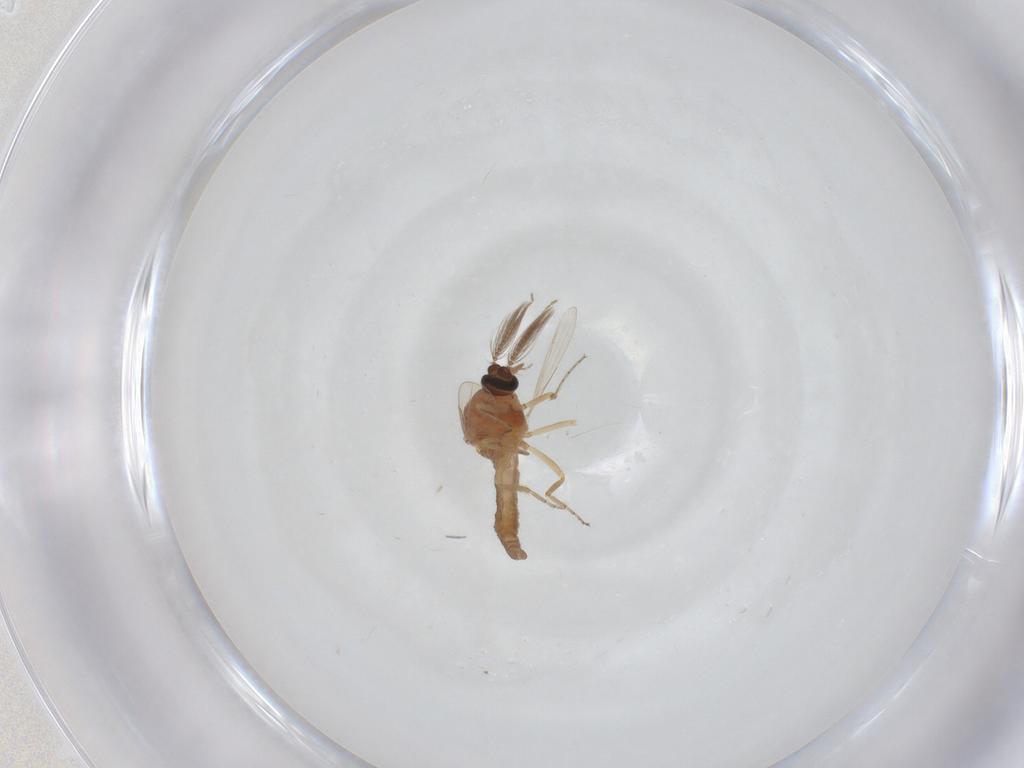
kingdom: Animalia
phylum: Arthropoda
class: Insecta
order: Diptera
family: Ceratopogonidae
